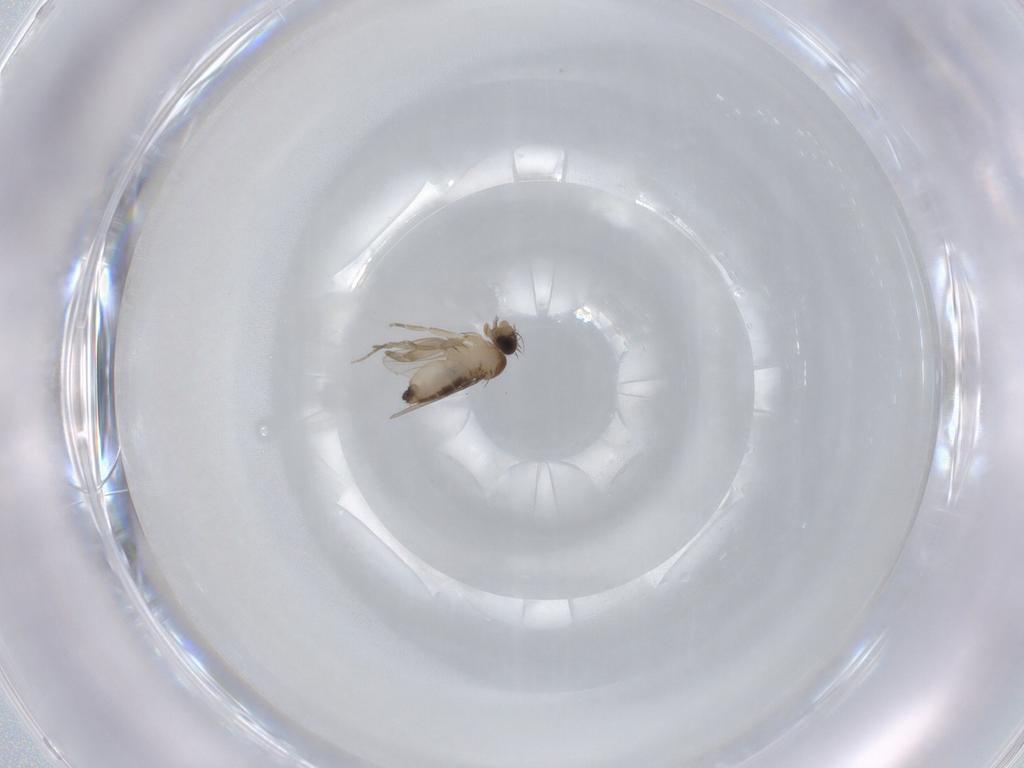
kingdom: Animalia
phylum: Arthropoda
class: Insecta
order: Diptera
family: Phoridae
